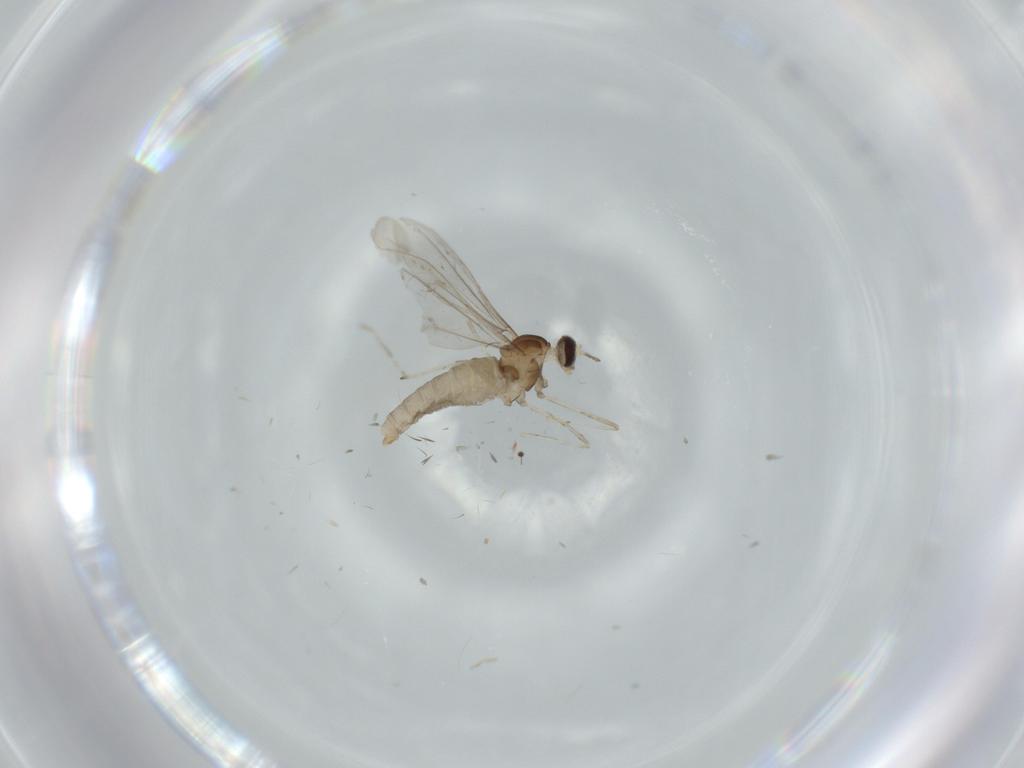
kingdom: Animalia
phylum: Arthropoda
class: Insecta
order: Diptera
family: Cecidomyiidae
